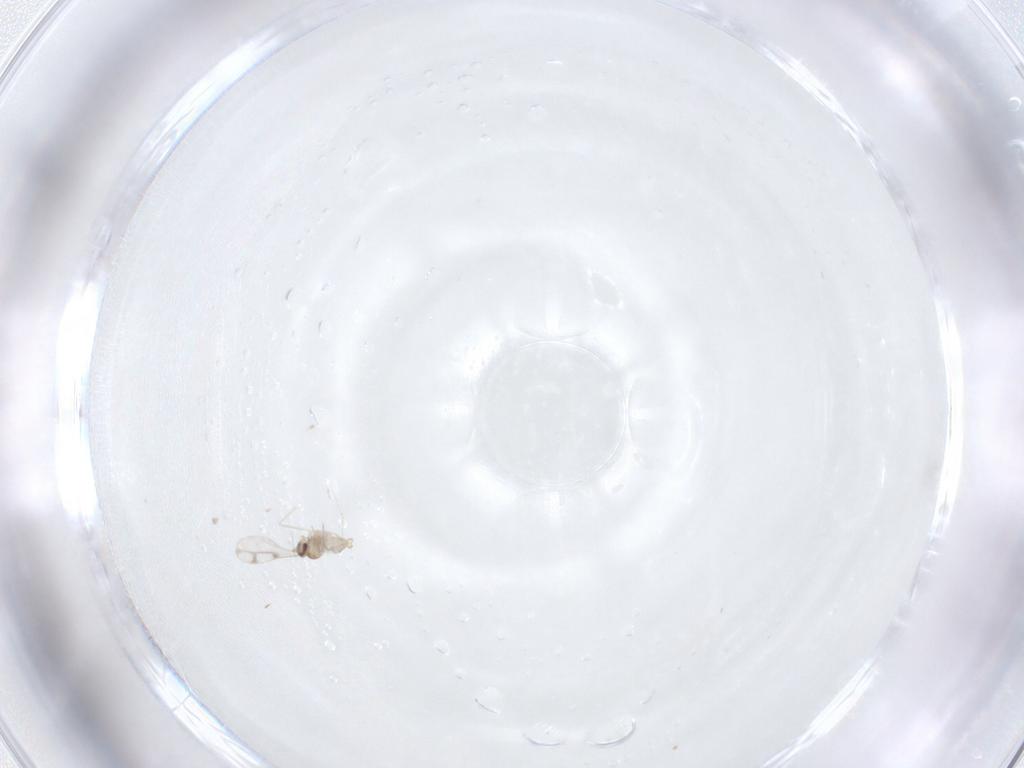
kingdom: Animalia
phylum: Arthropoda
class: Insecta
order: Diptera
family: Cecidomyiidae
